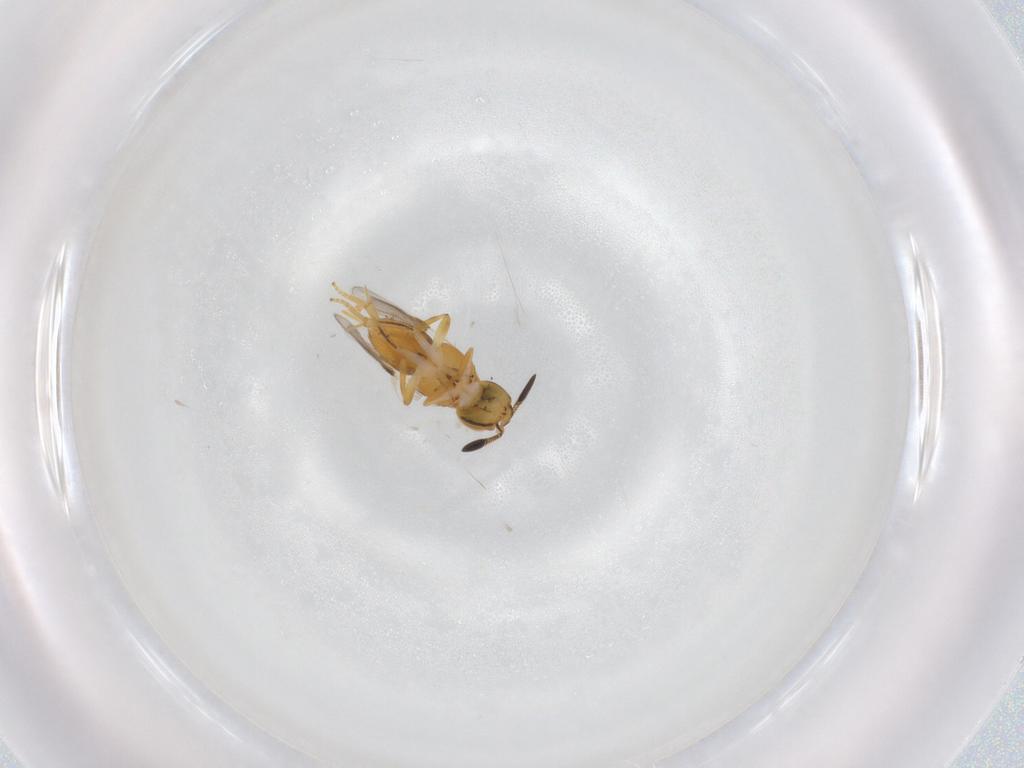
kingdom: Animalia
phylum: Arthropoda
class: Insecta
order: Hymenoptera
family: Encyrtidae
